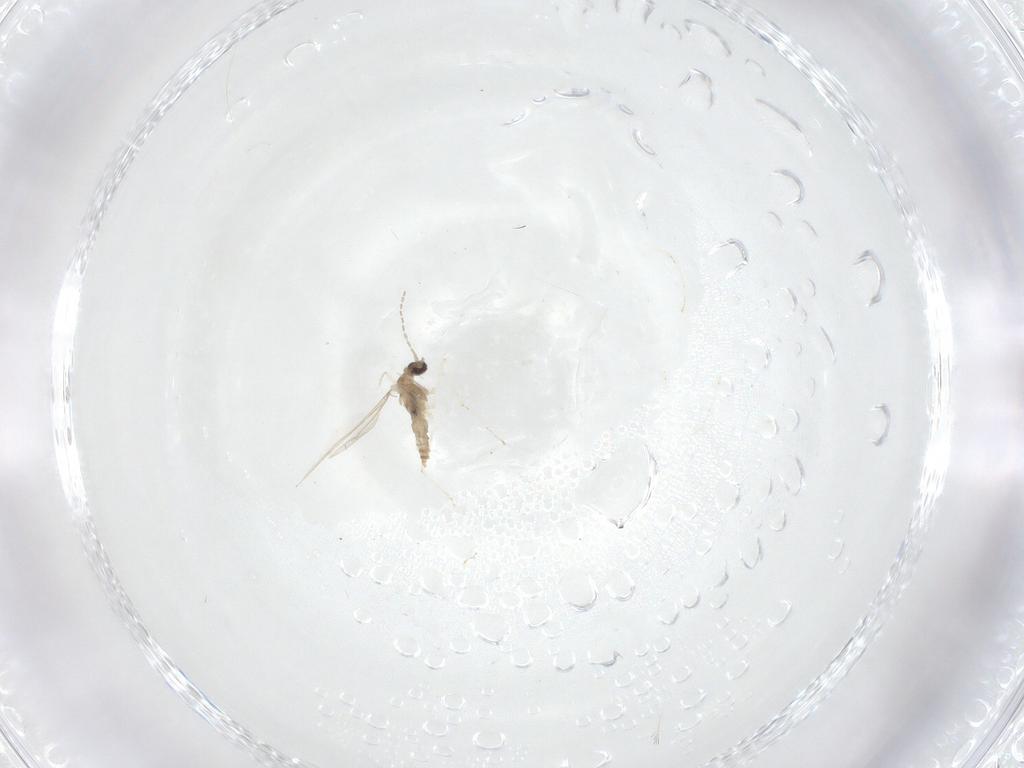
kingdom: Animalia
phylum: Arthropoda
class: Insecta
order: Diptera
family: Cecidomyiidae
